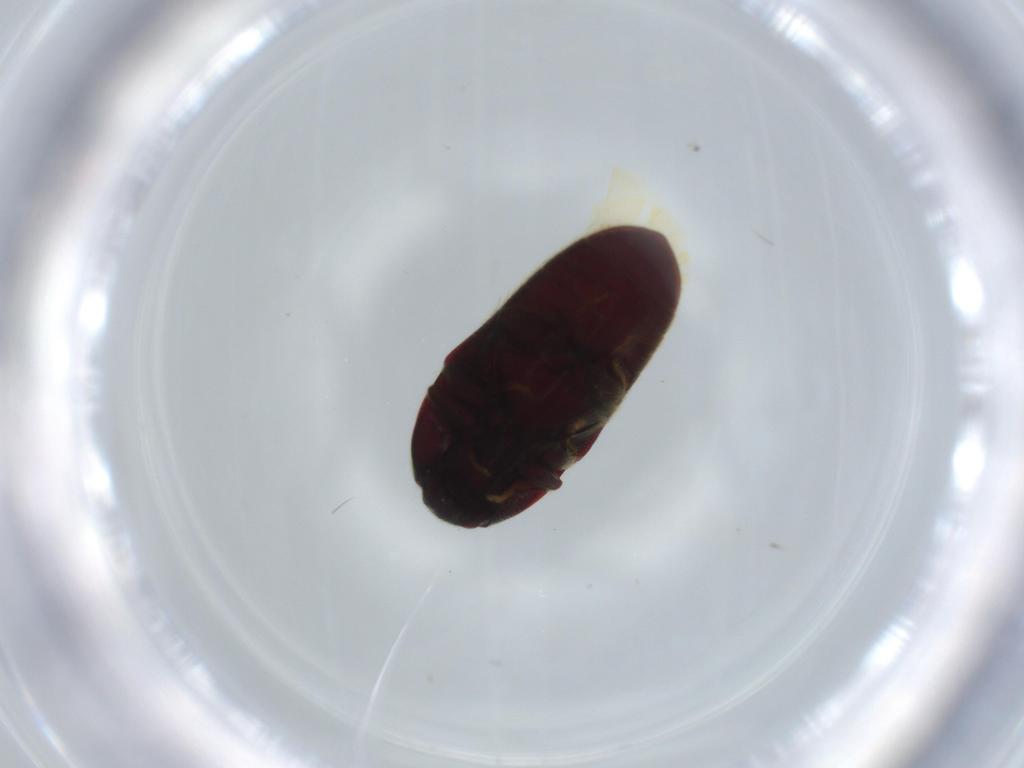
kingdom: Animalia
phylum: Arthropoda
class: Insecta
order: Coleoptera
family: Throscidae
